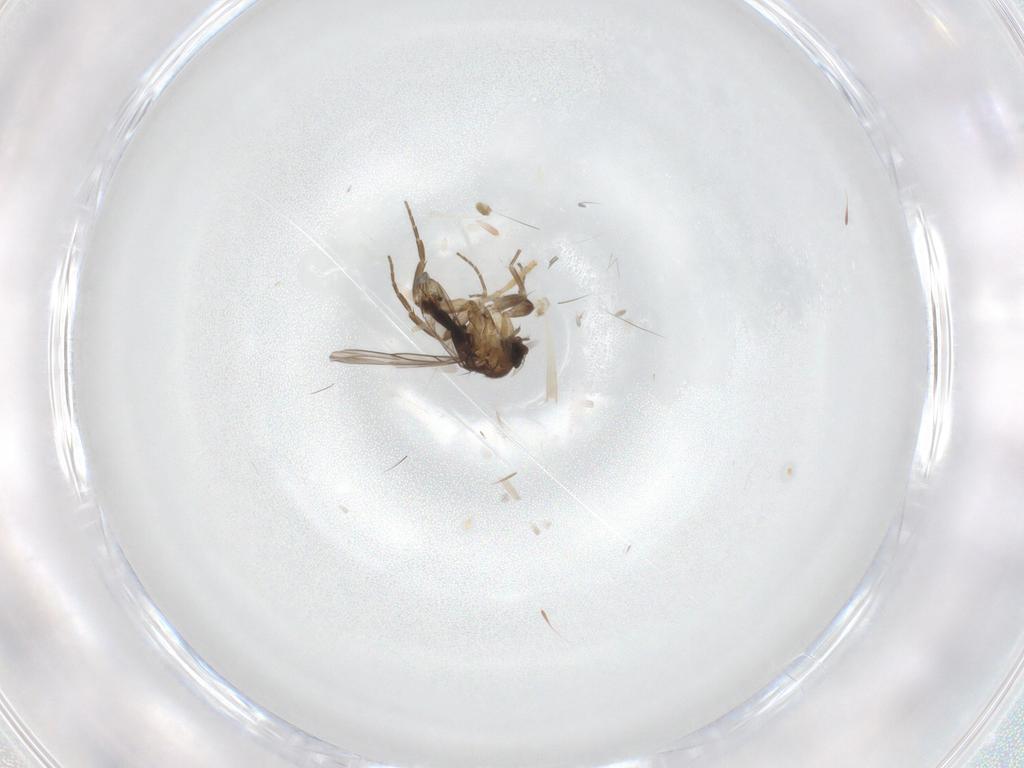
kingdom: Animalia
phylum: Arthropoda
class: Insecta
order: Diptera
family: Psychodidae
